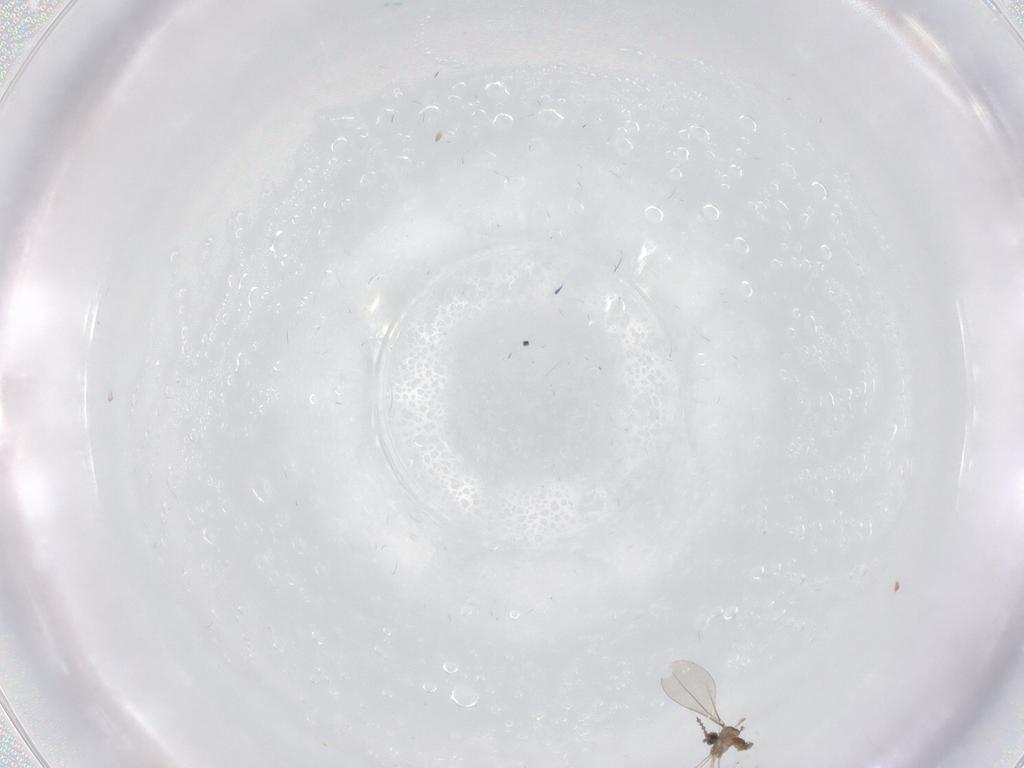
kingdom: Animalia
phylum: Arthropoda
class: Insecta
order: Diptera
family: Cecidomyiidae
